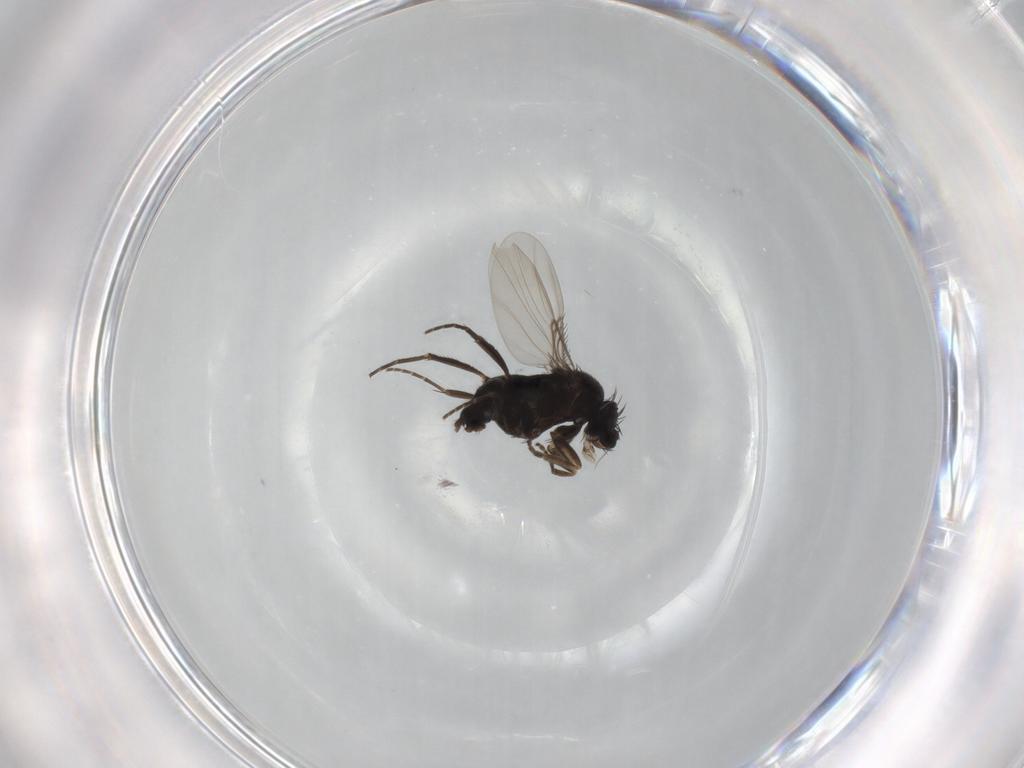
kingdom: Animalia
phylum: Arthropoda
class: Insecta
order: Diptera
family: Phoridae
